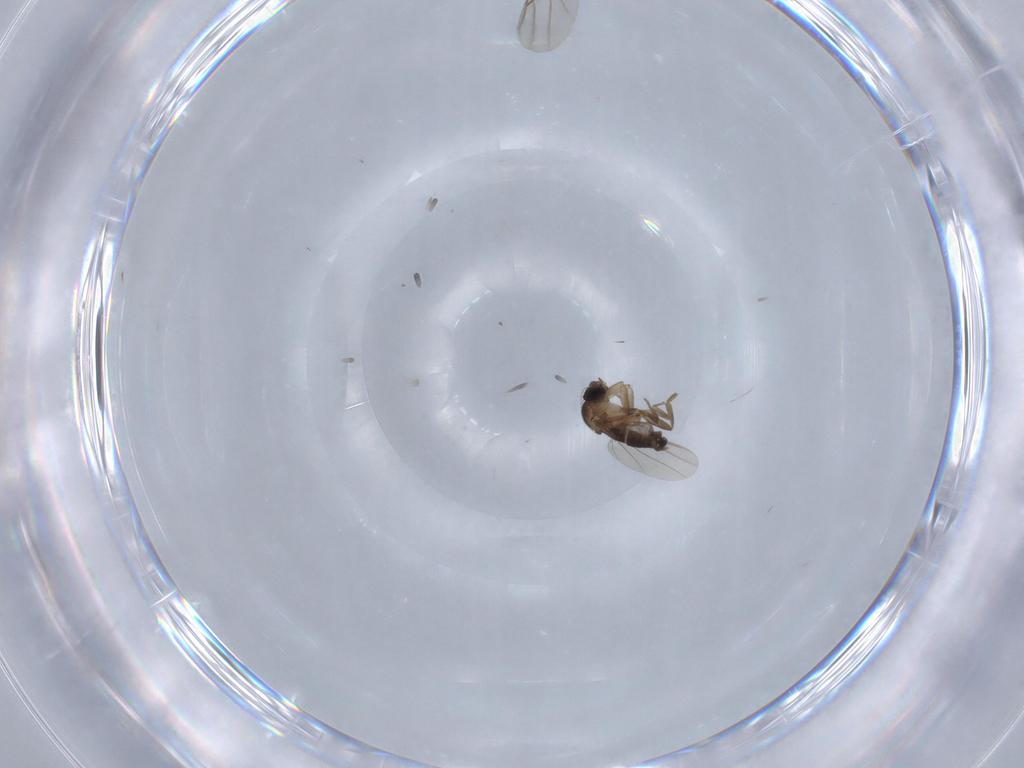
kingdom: Animalia
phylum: Arthropoda
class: Insecta
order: Diptera
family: Phoridae
